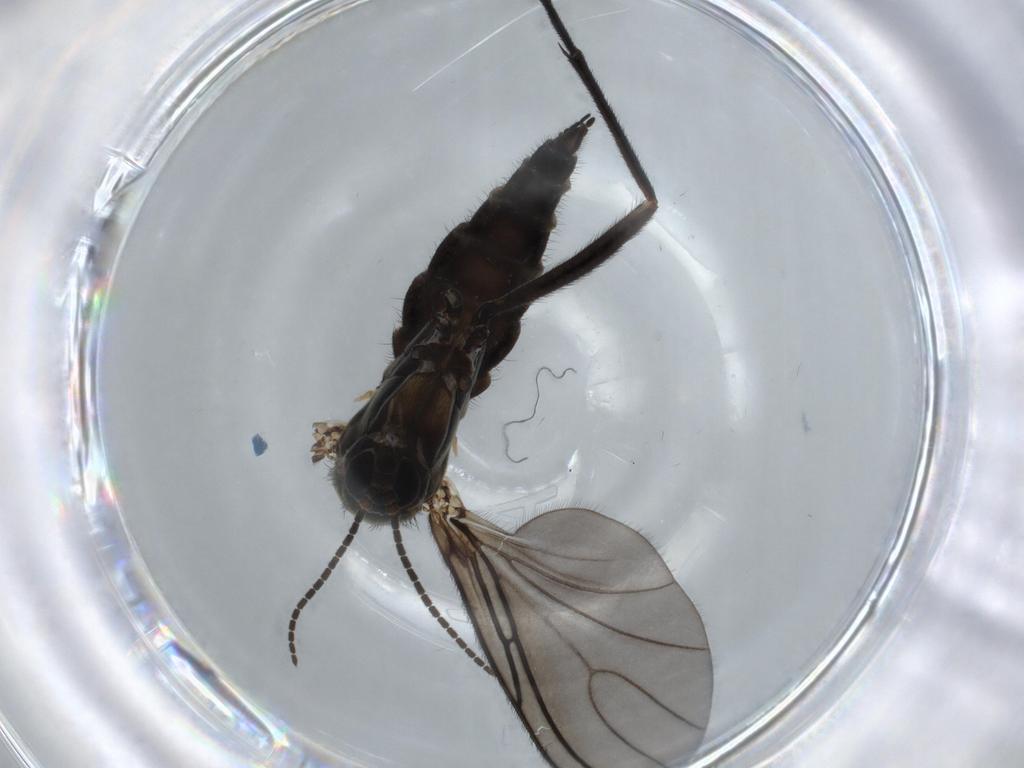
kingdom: Animalia
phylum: Arthropoda
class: Insecta
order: Diptera
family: Sciaridae
